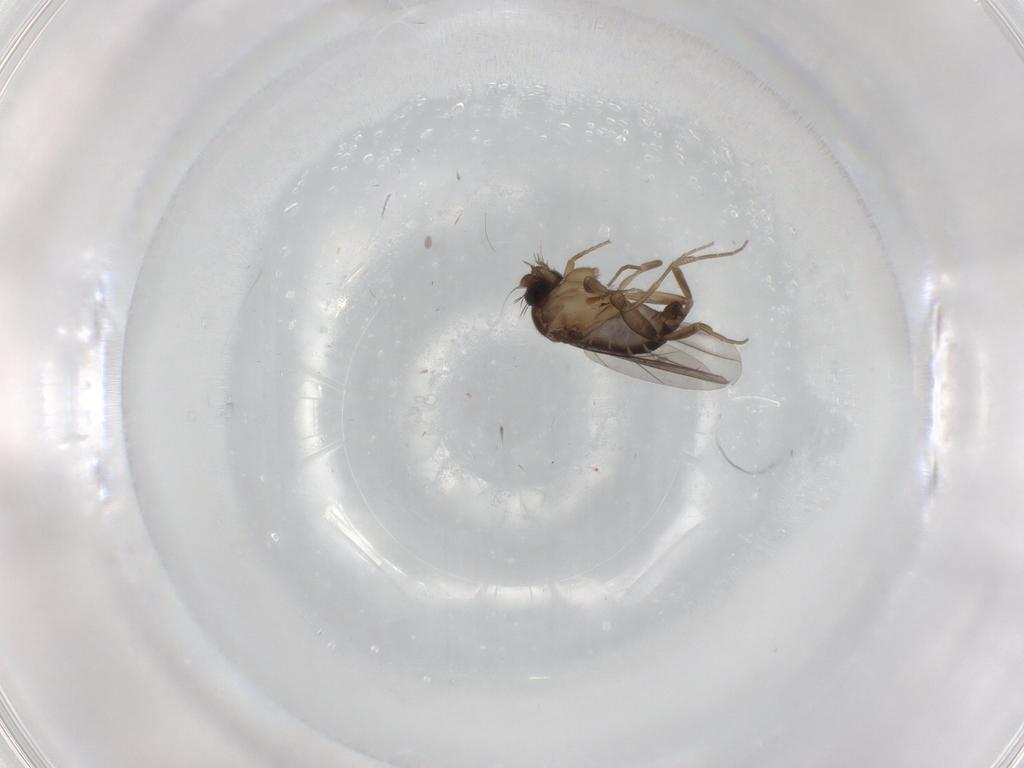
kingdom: Animalia
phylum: Arthropoda
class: Insecta
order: Diptera
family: Phoridae
